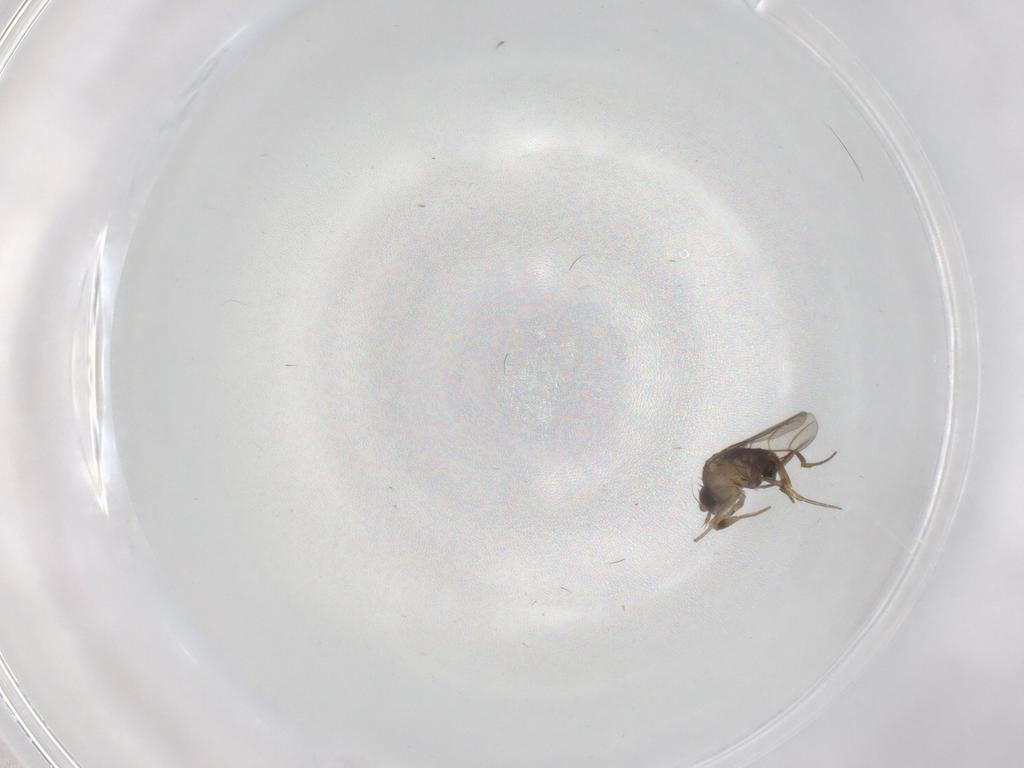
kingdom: Animalia
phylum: Arthropoda
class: Insecta
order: Diptera
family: Phoridae
